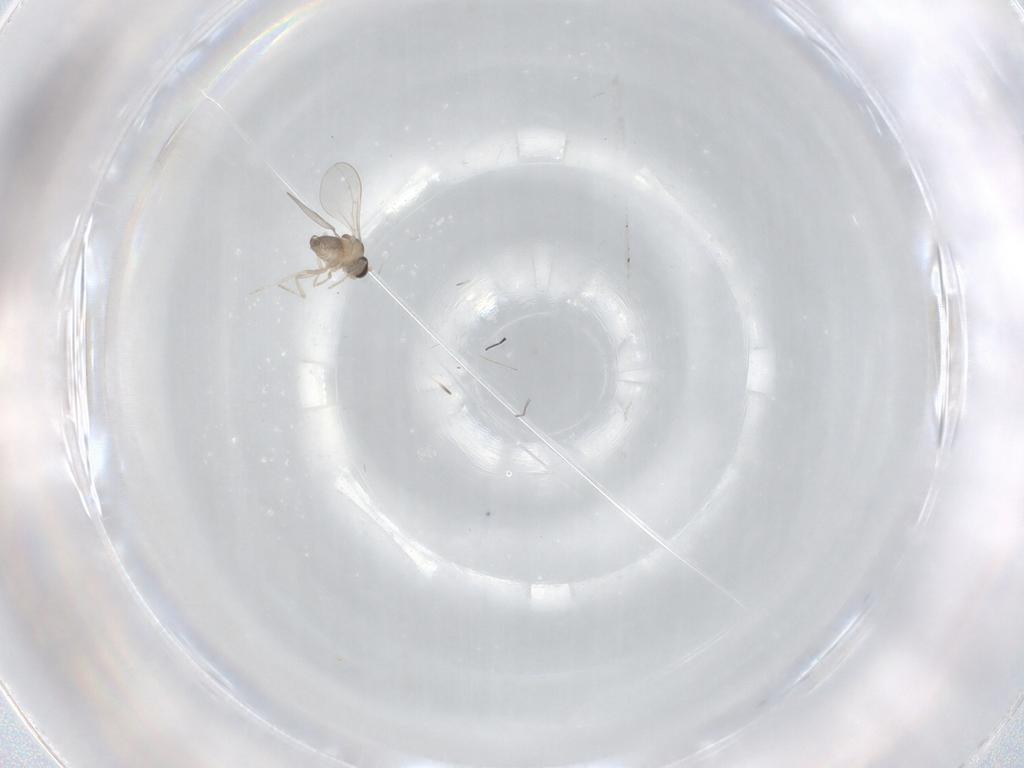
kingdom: Animalia
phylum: Arthropoda
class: Insecta
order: Diptera
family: Cecidomyiidae
